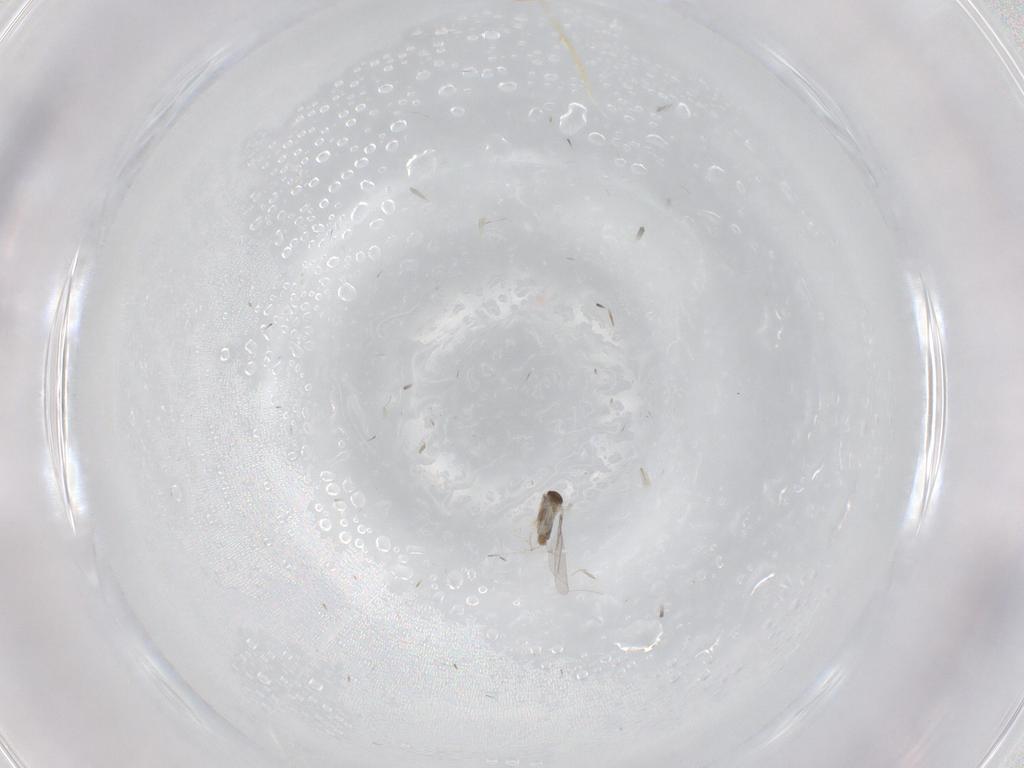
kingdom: Animalia
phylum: Arthropoda
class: Insecta
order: Diptera
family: Cecidomyiidae
